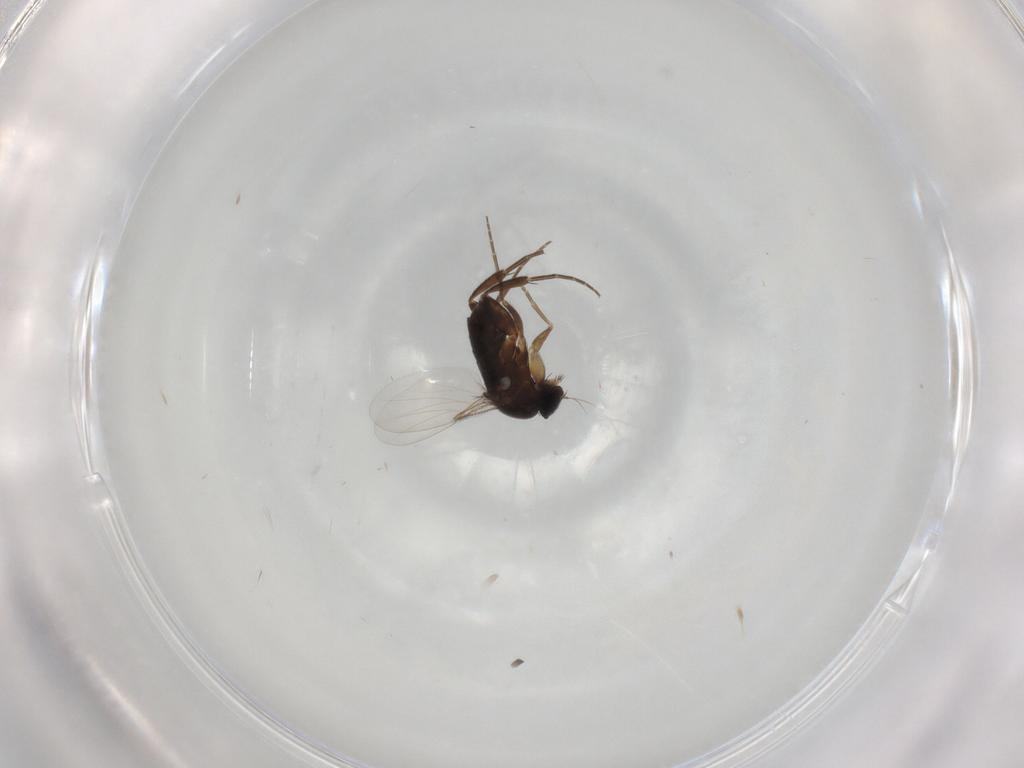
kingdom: Animalia
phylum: Arthropoda
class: Insecta
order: Diptera
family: Phoridae
